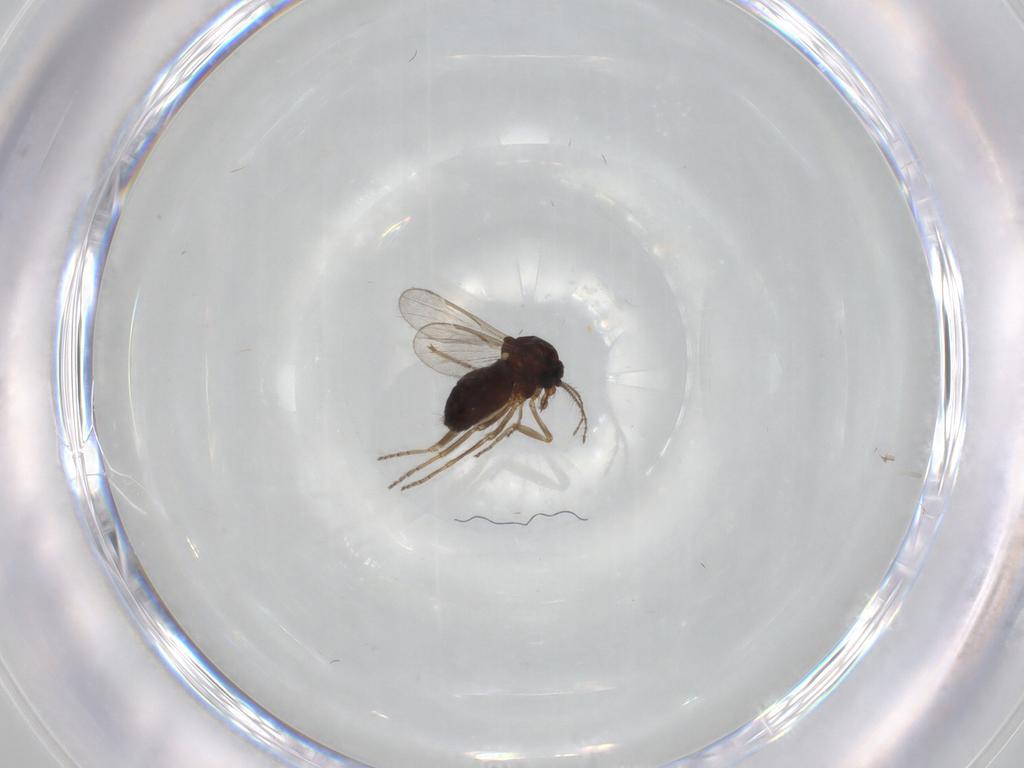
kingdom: Animalia
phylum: Arthropoda
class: Insecta
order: Diptera
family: Ceratopogonidae
